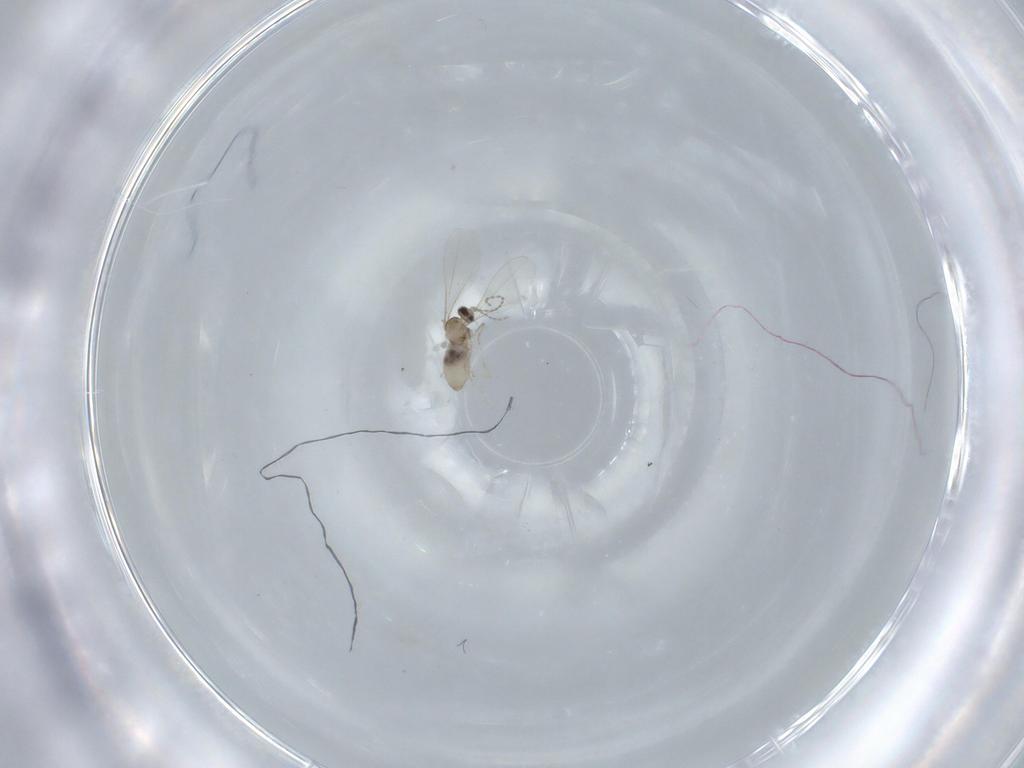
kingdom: Animalia
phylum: Arthropoda
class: Insecta
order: Diptera
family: Phoridae
